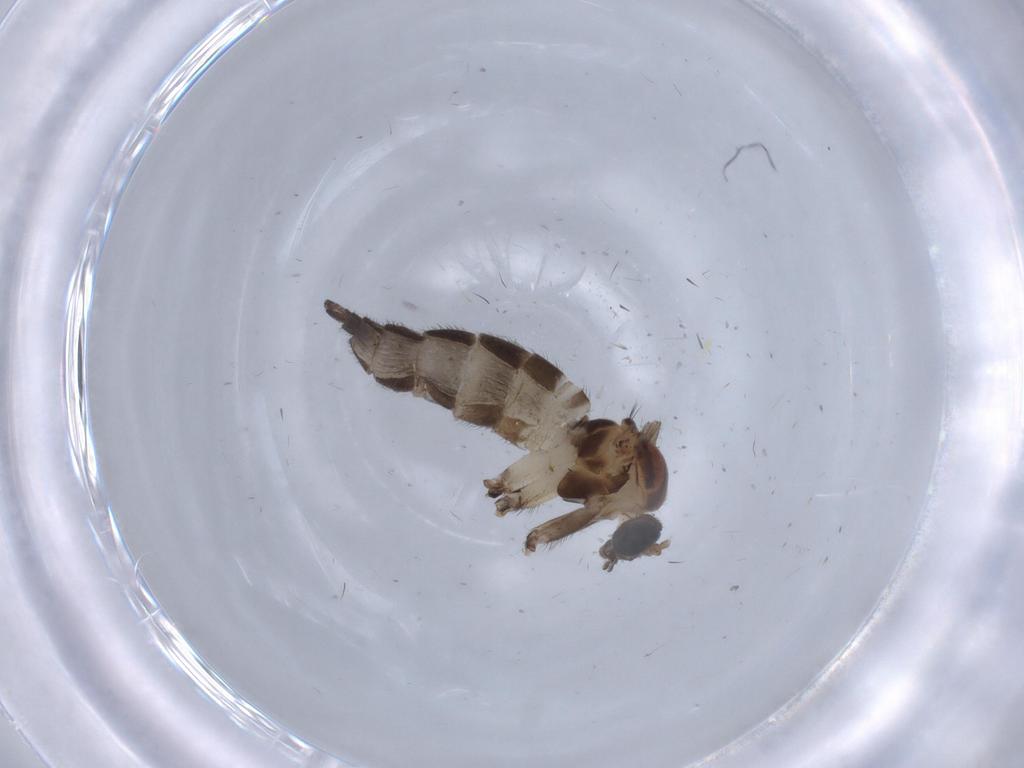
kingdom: Animalia
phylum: Arthropoda
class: Insecta
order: Diptera
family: Sciaridae
